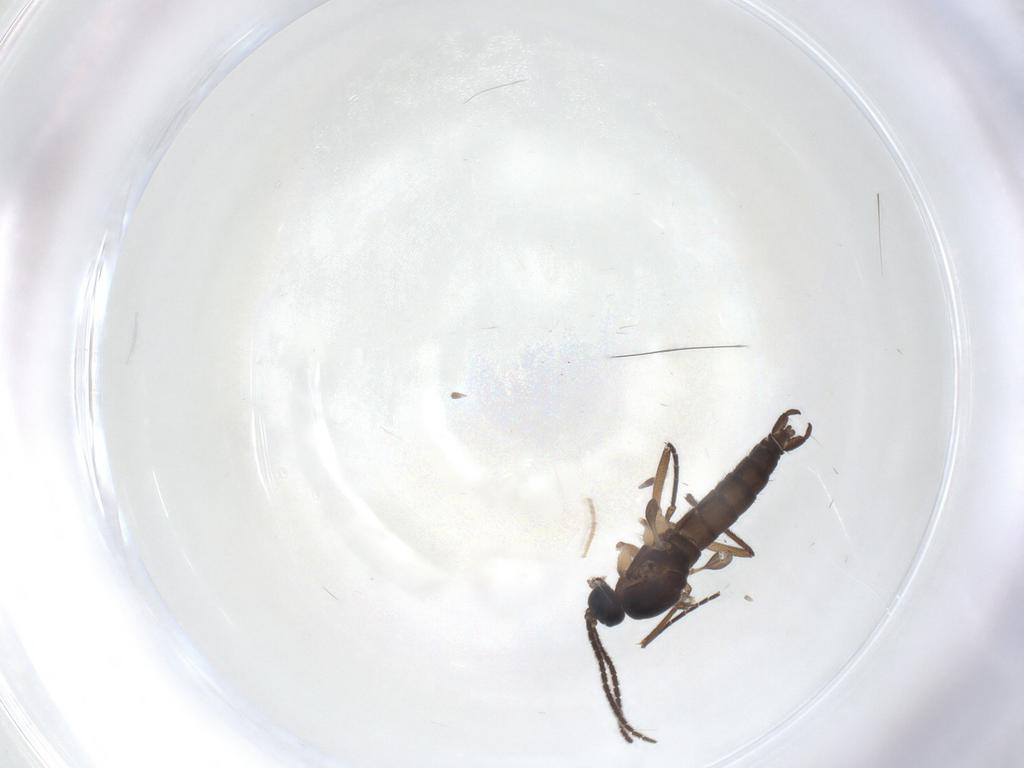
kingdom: Animalia
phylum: Arthropoda
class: Insecta
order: Diptera
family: Sciaridae
